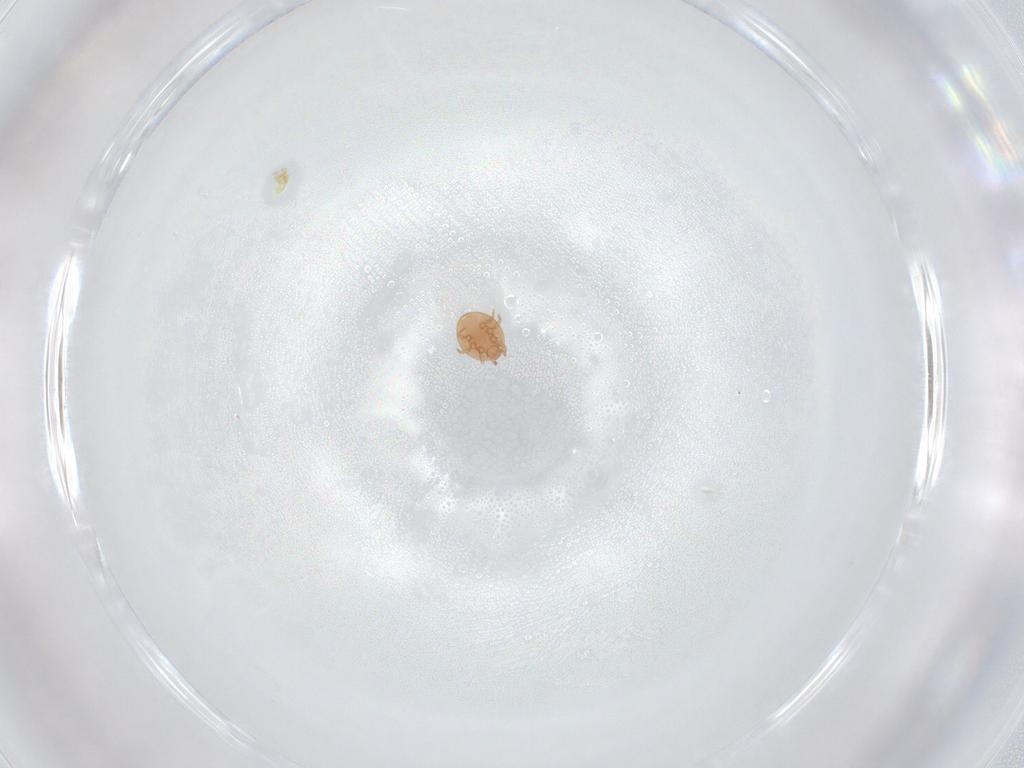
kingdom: Animalia
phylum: Arthropoda
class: Arachnida
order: Mesostigmata
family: Trematuridae
